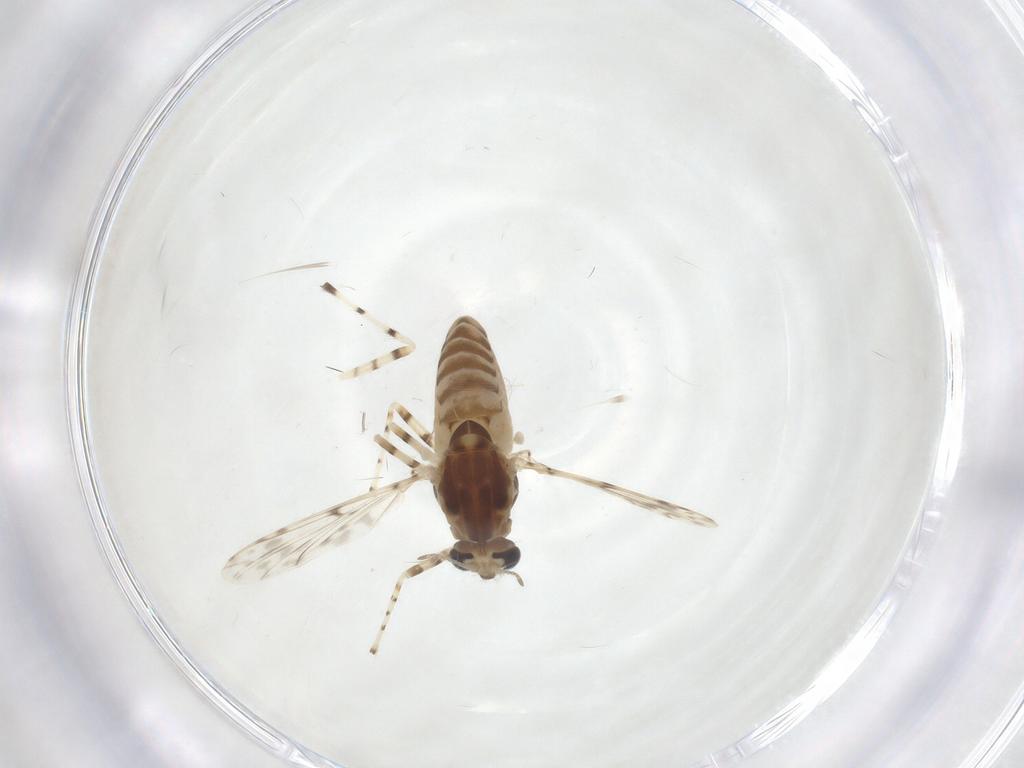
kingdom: Animalia
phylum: Arthropoda
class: Insecta
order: Diptera
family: Chironomidae
